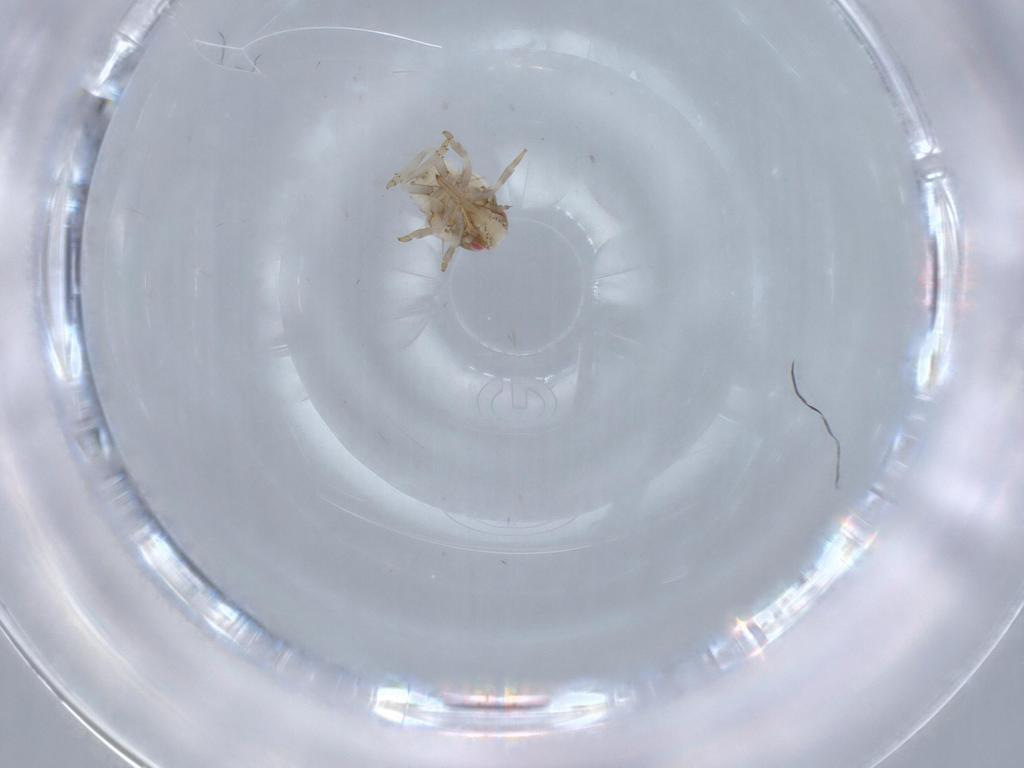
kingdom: Animalia
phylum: Arthropoda
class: Insecta
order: Hemiptera
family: Acanaloniidae
